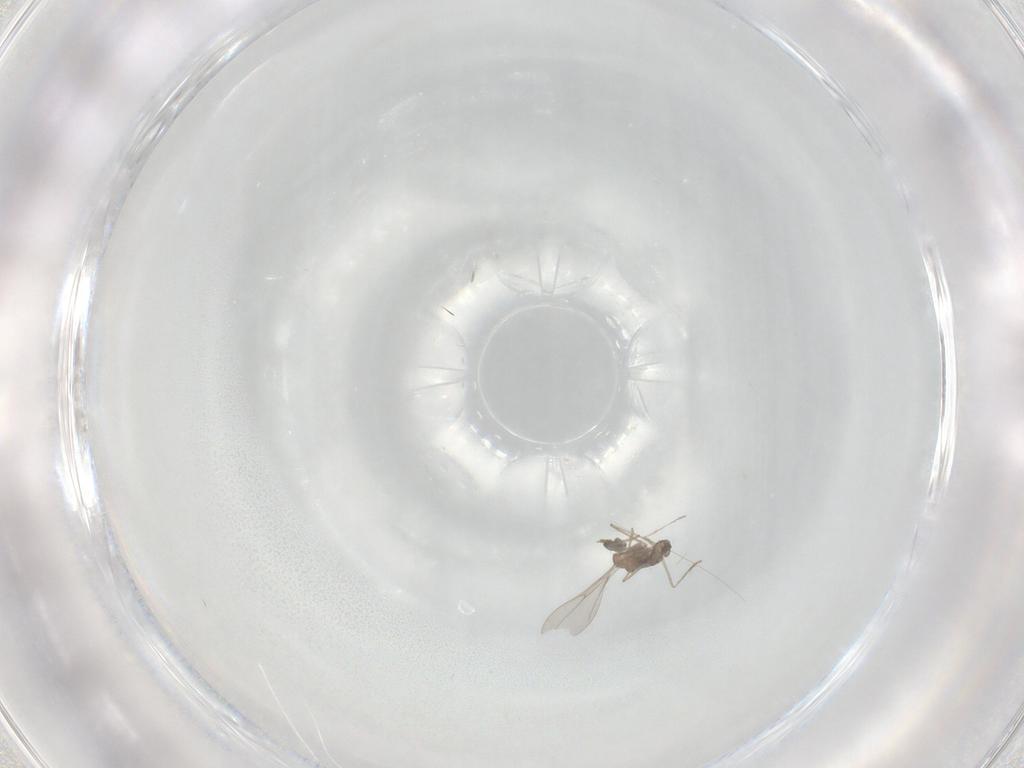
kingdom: Animalia
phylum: Arthropoda
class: Insecta
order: Diptera
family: Cecidomyiidae
